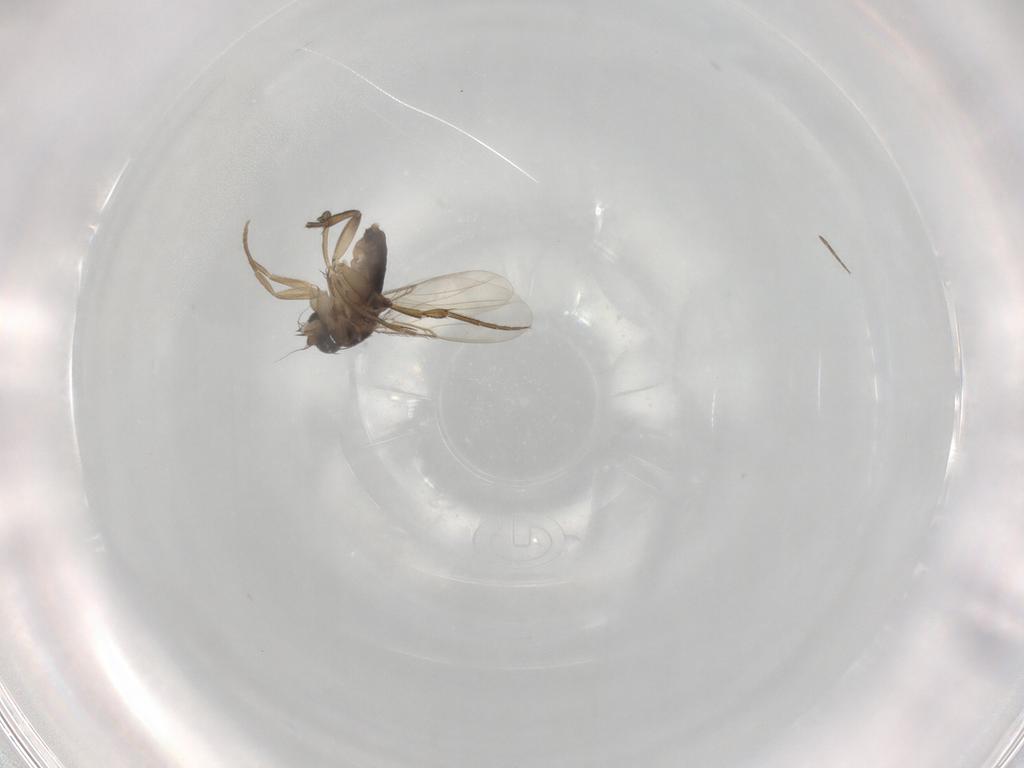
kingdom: Animalia
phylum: Arthropoda
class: Insecta
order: Diptera
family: Phoridae
